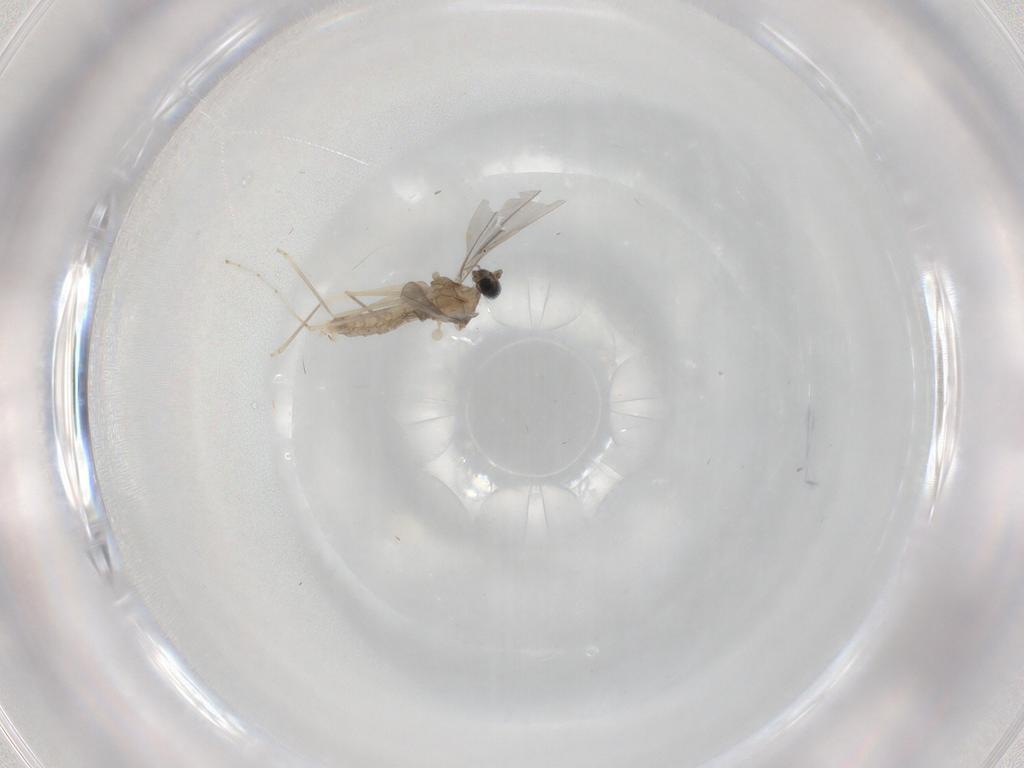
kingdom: Animalia
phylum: Arthropoda
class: Insecta
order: Diptera
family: Cecidomyiidae
